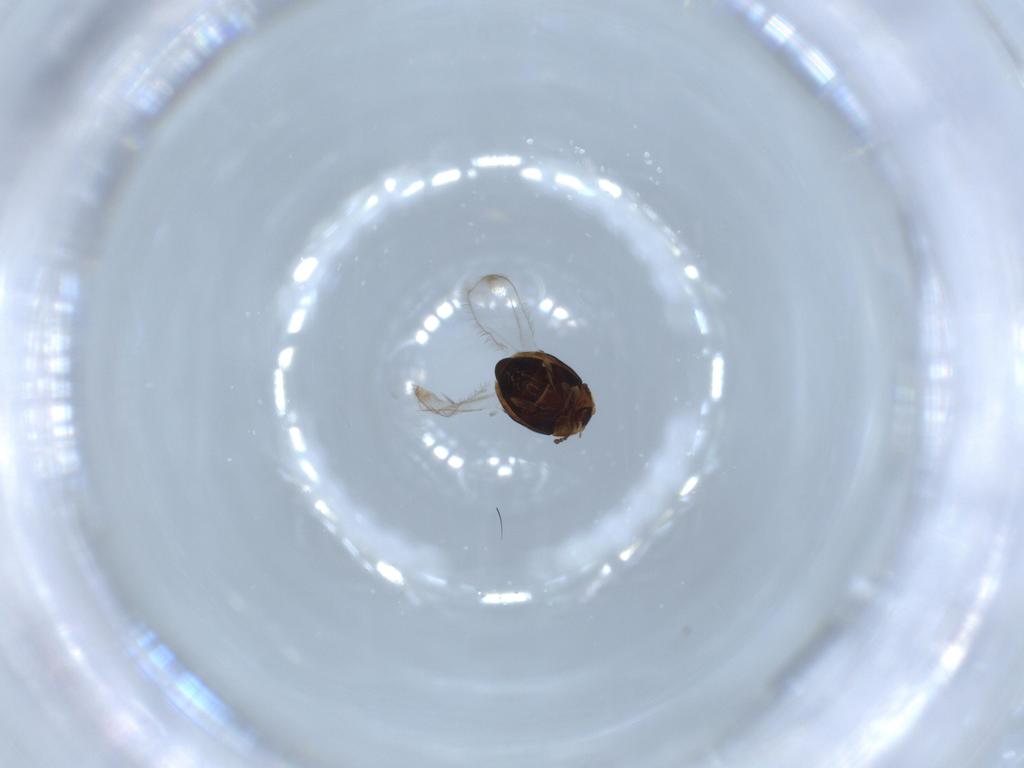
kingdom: Animalia
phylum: Arthropoda
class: Insecta
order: Coleoptera
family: Corylophidae
